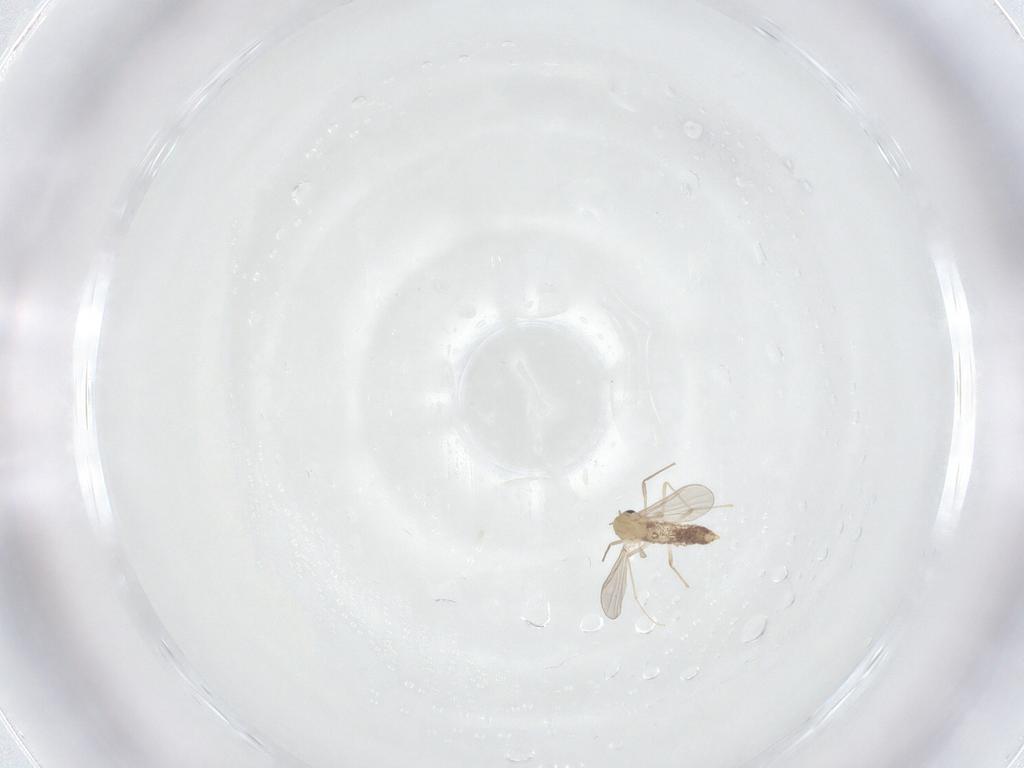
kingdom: Animalia
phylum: Arthropoda
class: Insecta
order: Diptera
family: Chironomidae
